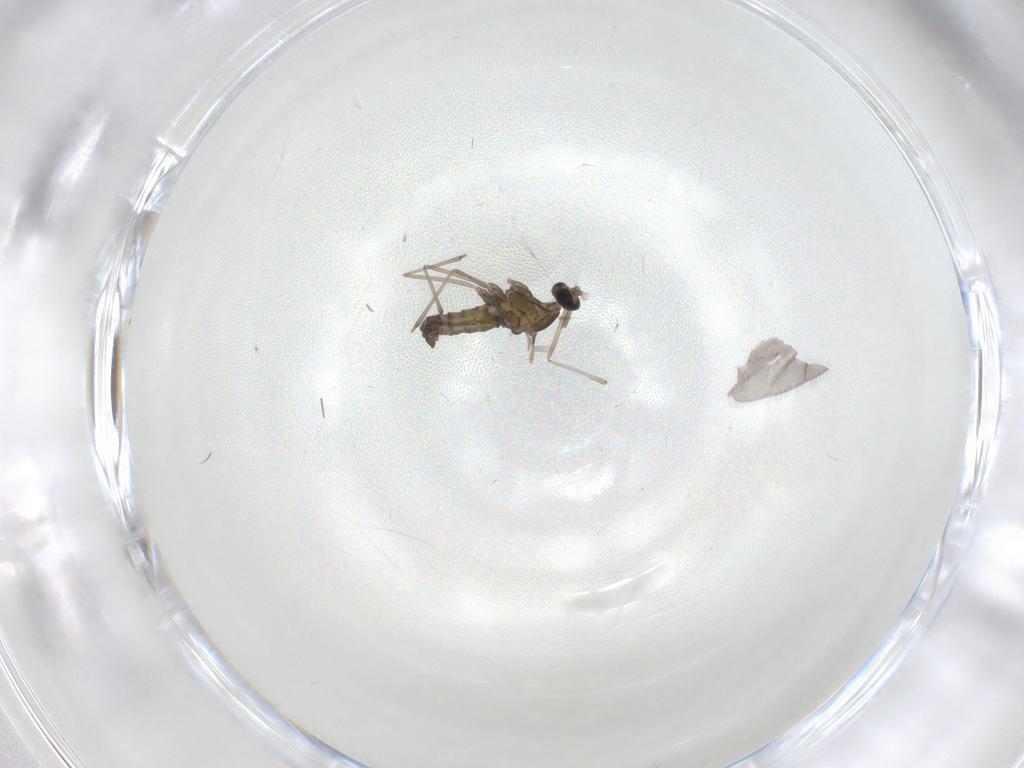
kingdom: Animalia
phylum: Arthropoda
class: Insecta
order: Diptera
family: Cecidomyiidae
